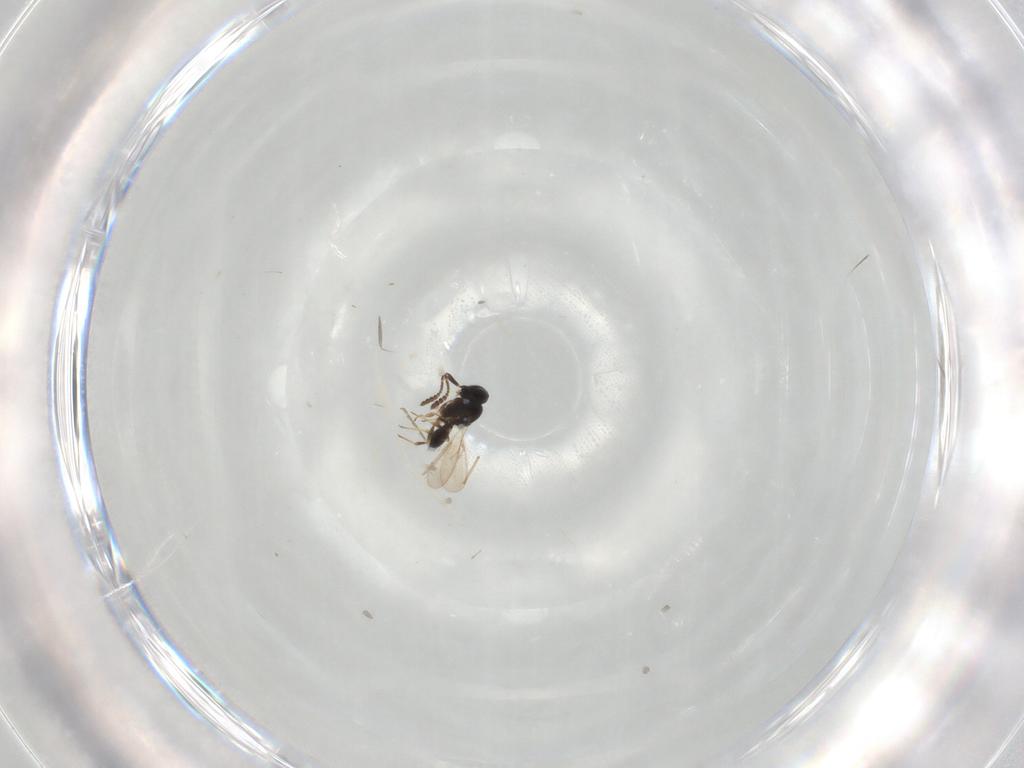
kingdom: Animalia
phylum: Arthropoda
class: Insecta
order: Hymenoptera
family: Scelionidae
